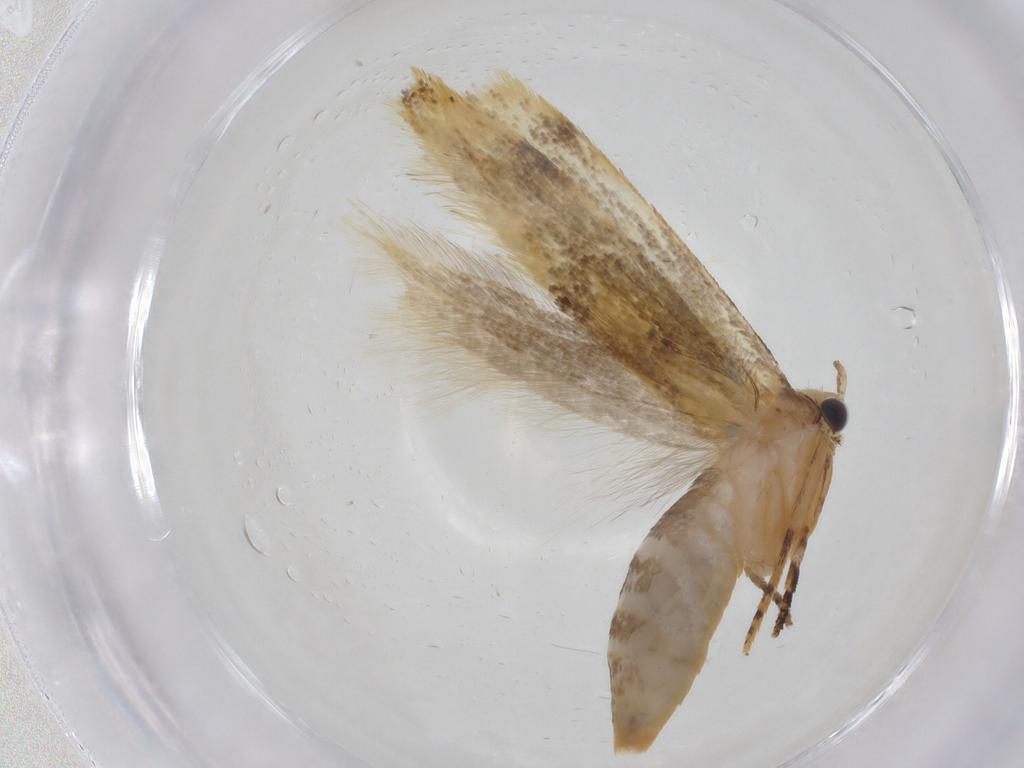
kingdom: Animalia
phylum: Arthropoda
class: Insecta
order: Lepidoptera
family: Tineidae
